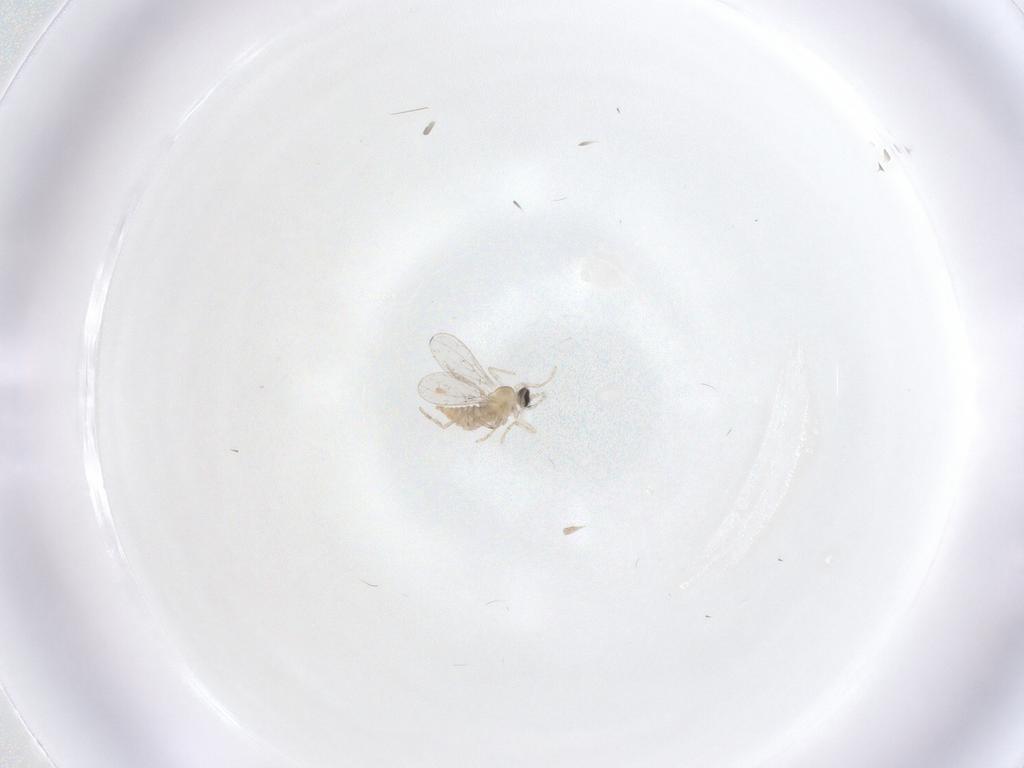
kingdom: Animalia
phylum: Arthropoda
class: Insecta
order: Diptera
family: Cecidomyiidae
